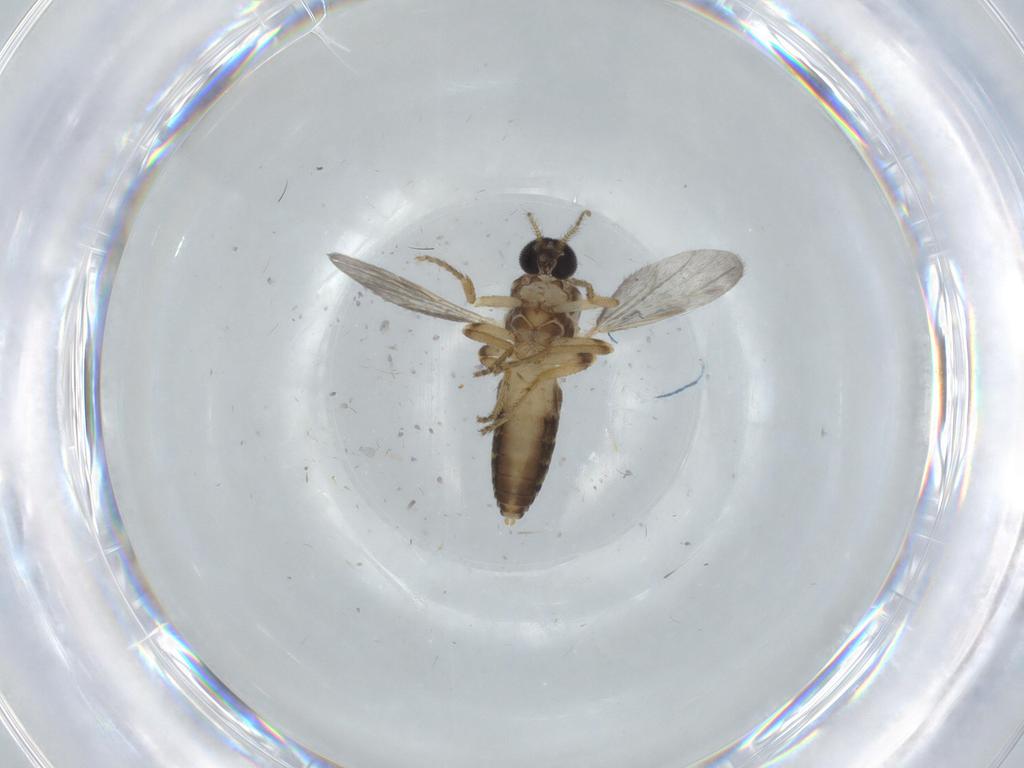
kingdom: Animalia
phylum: Arthropoda
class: Insecta
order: Diptera
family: Ceratopogonidae
